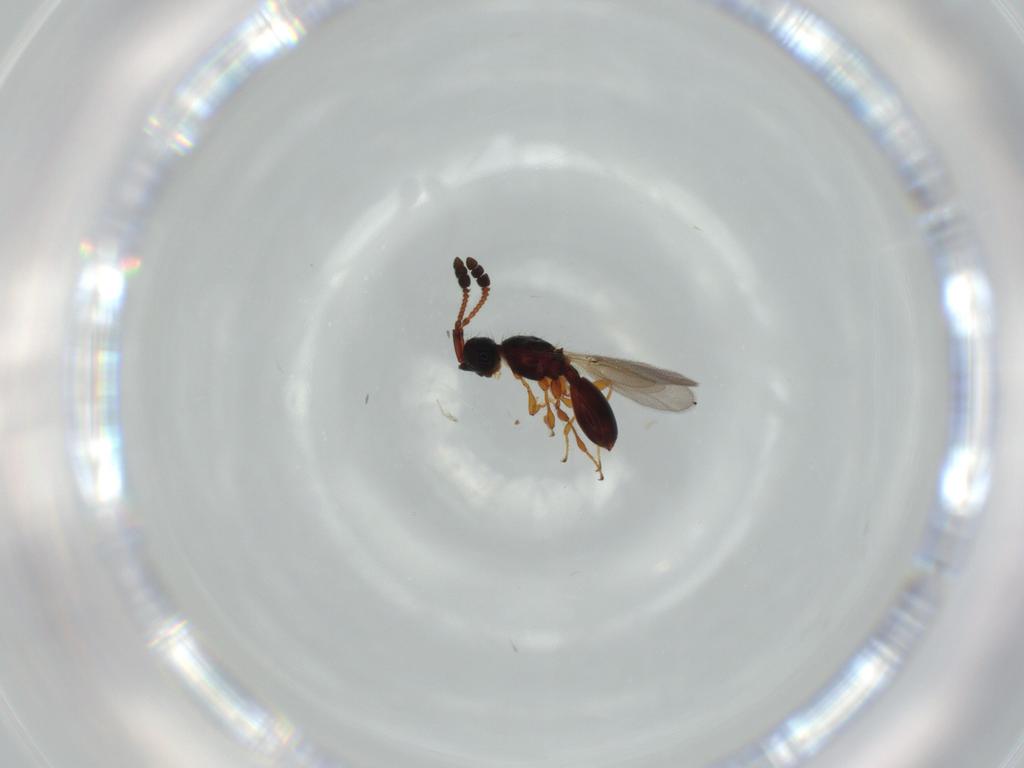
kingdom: Animalia
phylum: Arthropoda
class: Insecta
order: Hymenoptera
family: Diapriidae
